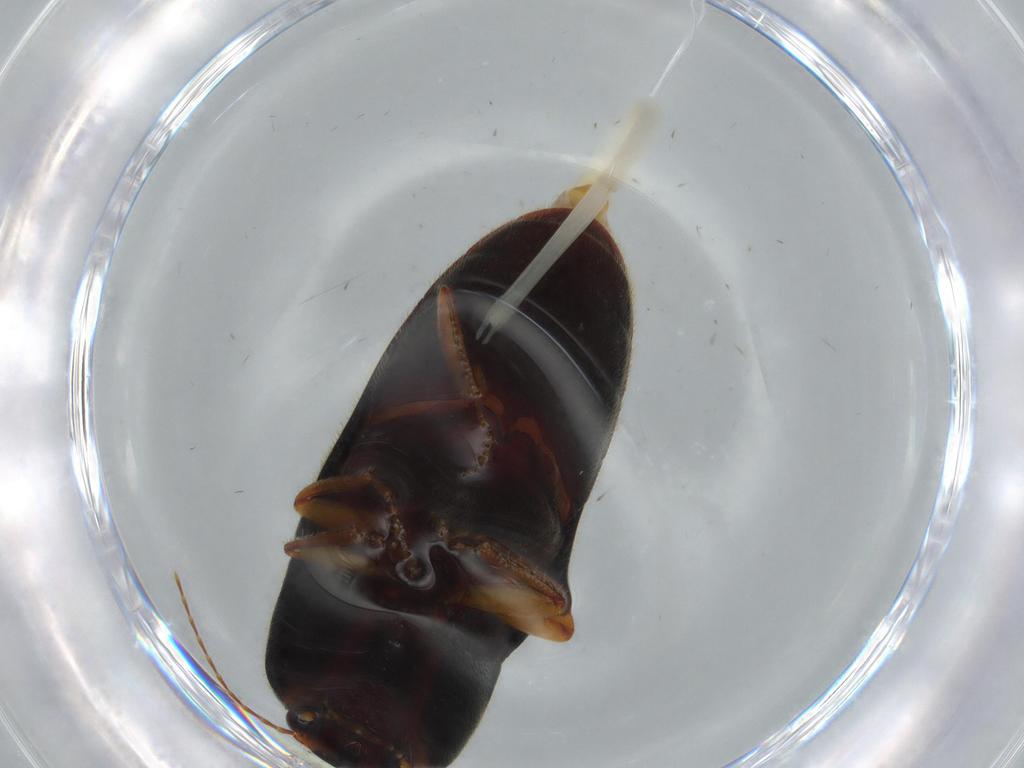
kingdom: Animalia
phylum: Arthropoda
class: Insecta
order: Coleoptera
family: Elateridae
